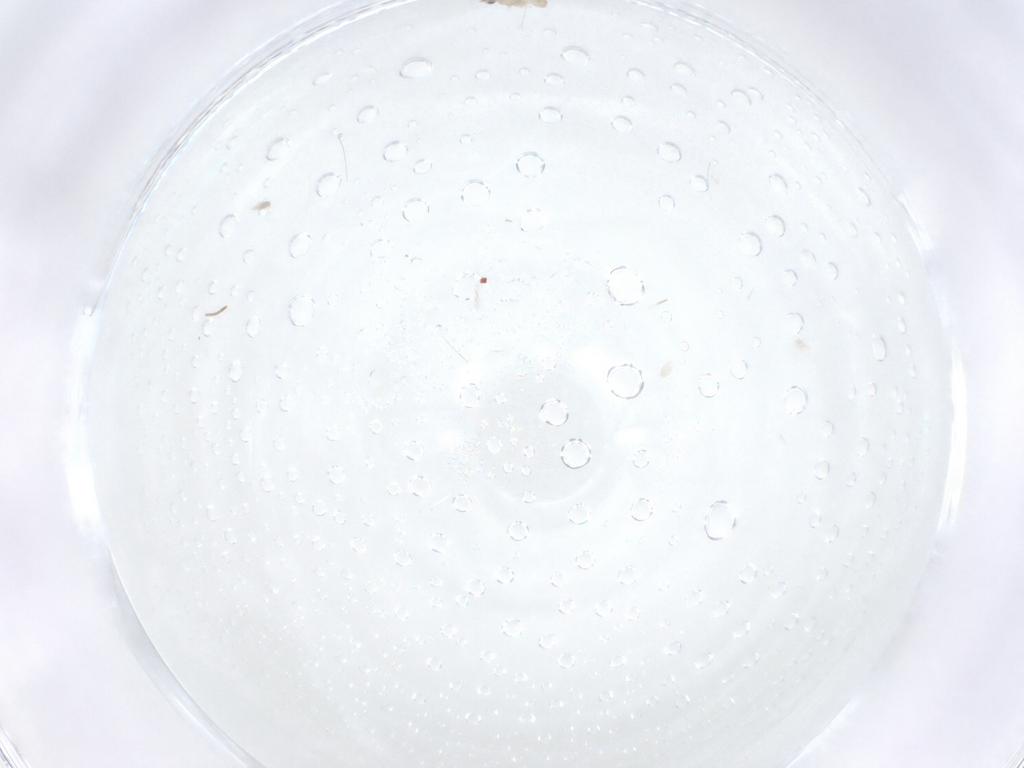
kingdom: Animalia
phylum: Arthropoda
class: Insecta
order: Diptera
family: Cecidomyiidae
